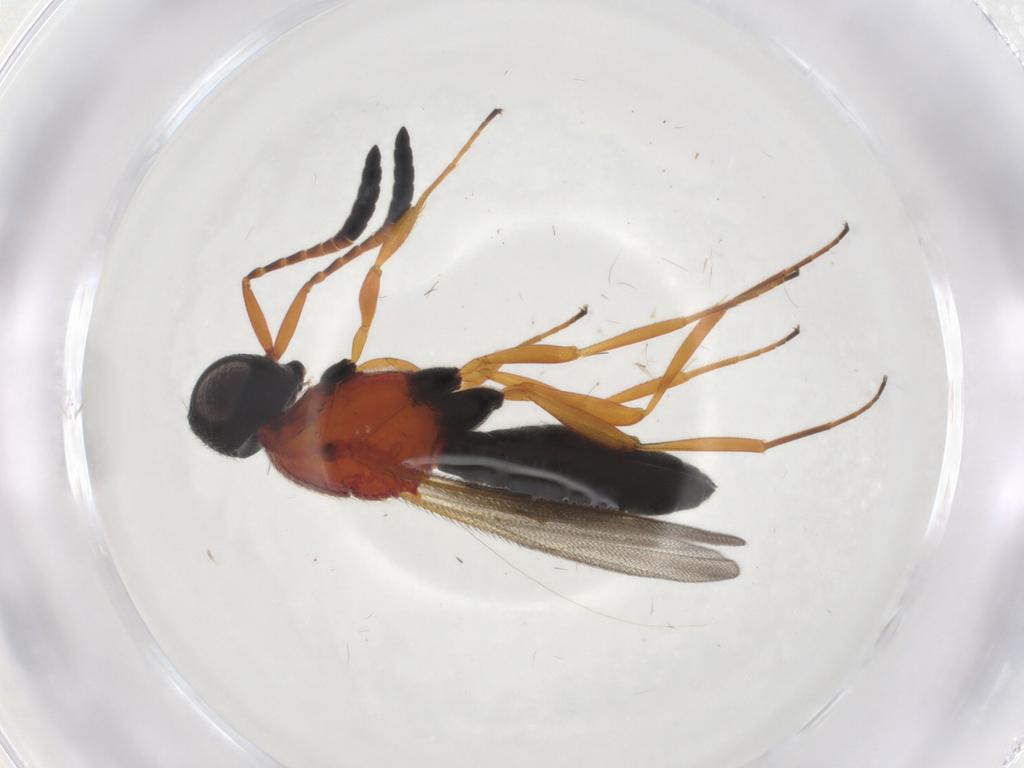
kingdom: Animalia
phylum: Arthropoda
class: Insecta
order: Hymenoptera
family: Scelionidae
